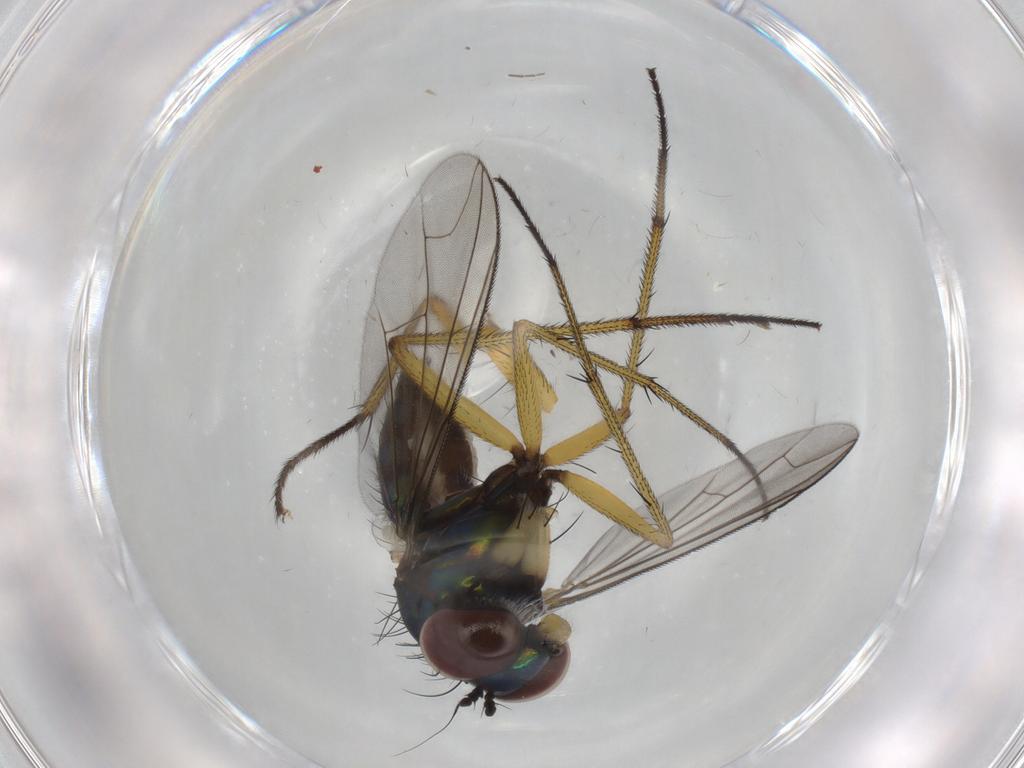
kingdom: Animalia
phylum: Arthropoda
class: Insecta
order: Diptera
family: Dolichopodidae
